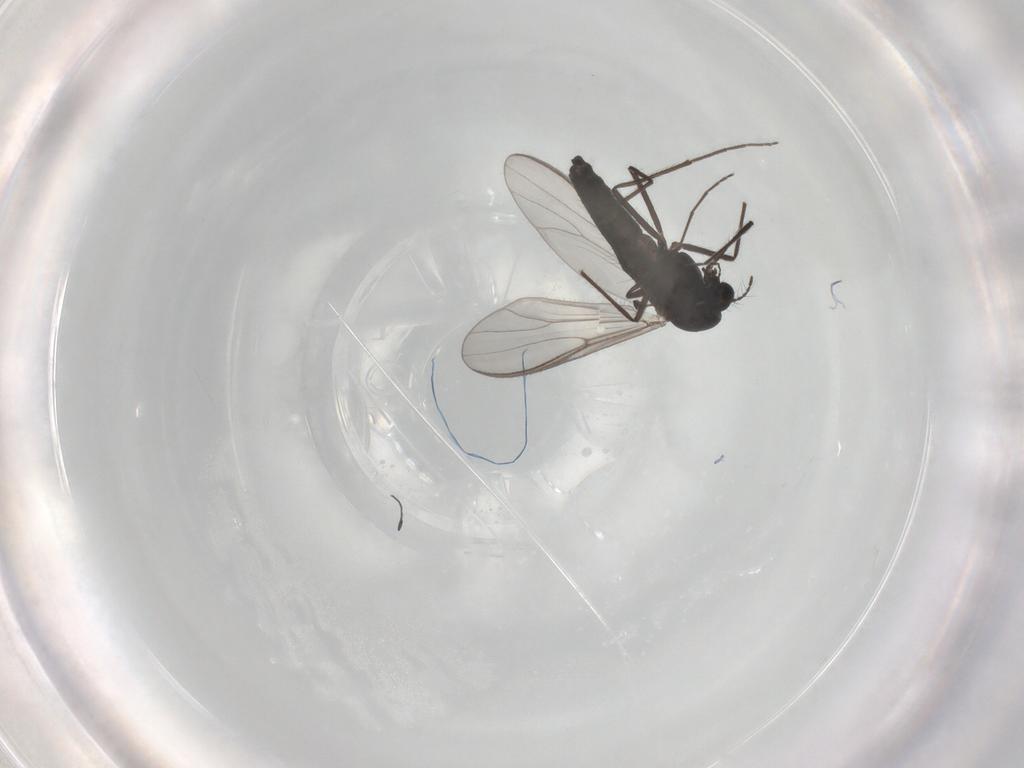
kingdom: Animalia
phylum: Arthropoda
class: Insecta
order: Diptera
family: Chironomidae
